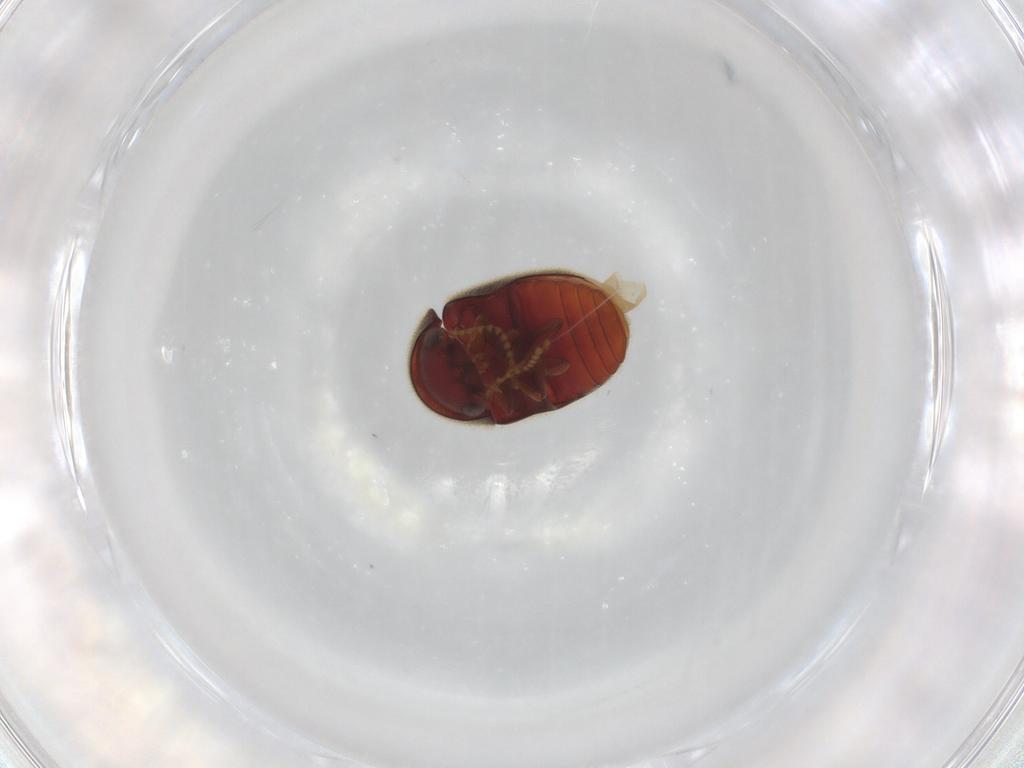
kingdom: Animalia
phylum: Arthropoda
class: Insecta
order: Coleoptera
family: Ptinidae
